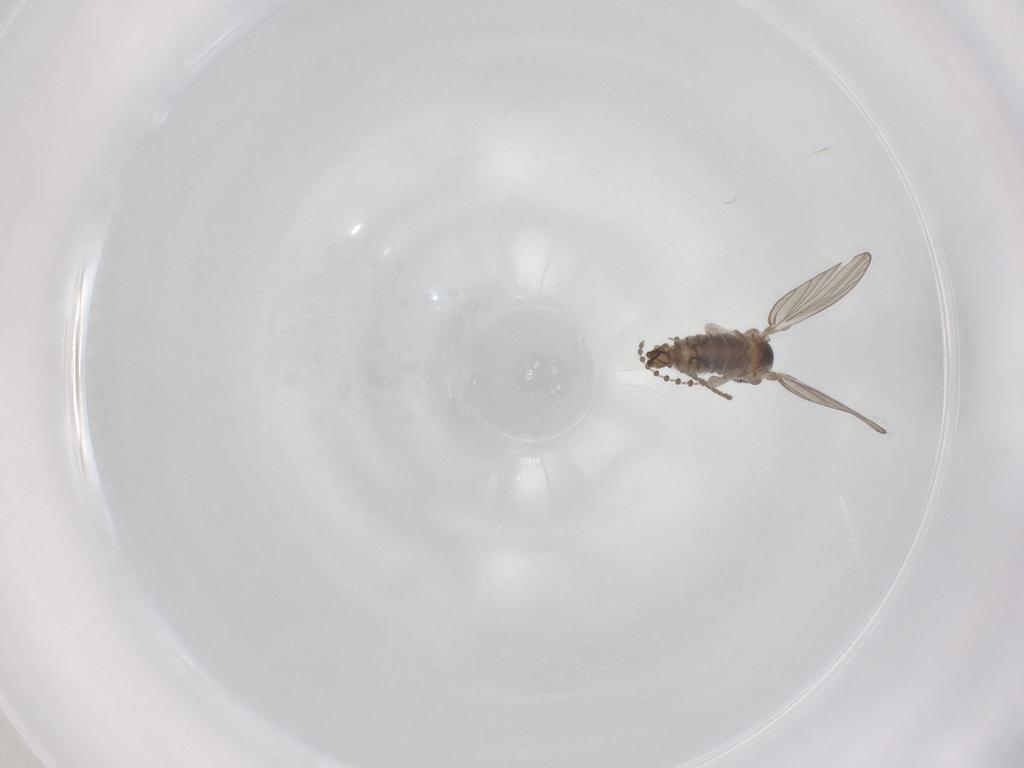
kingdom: Animalia
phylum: Arthropoda
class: Insecta
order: Diptera
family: Psychodidae
